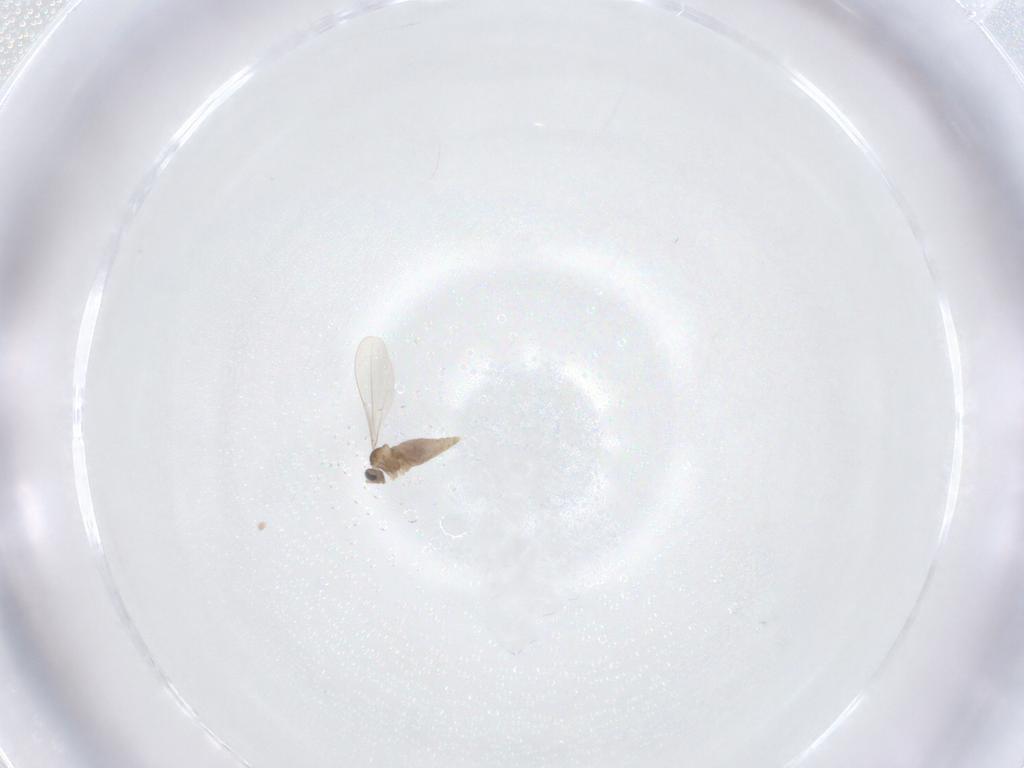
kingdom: Animalia
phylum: Arthropoda
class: Insecta
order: Diptera
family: Cecidomyiidae
